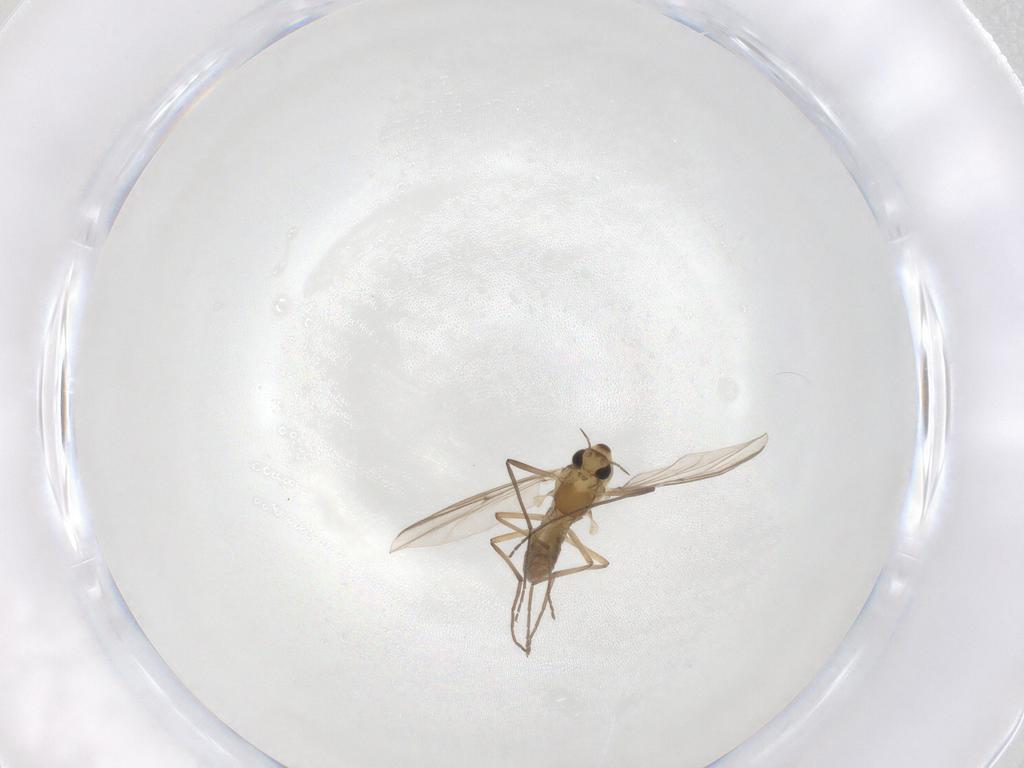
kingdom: Animalia
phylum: Arthropoda
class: Insecta
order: Diptera
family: Chironomidae
